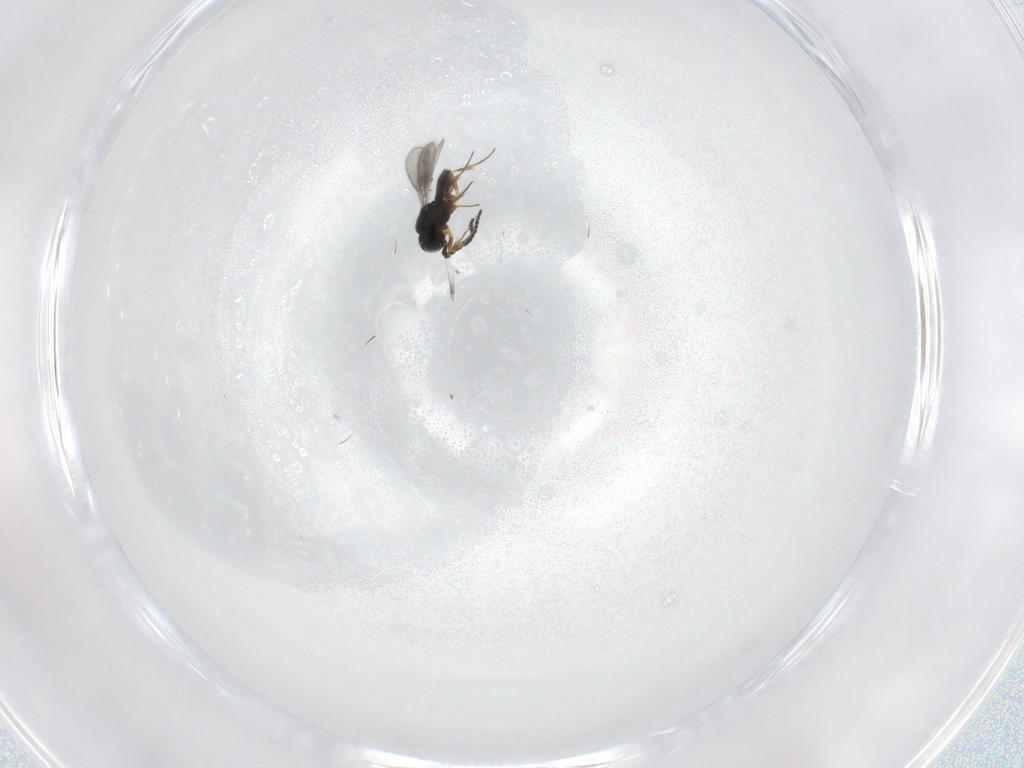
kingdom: Animalia
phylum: Arthropoda
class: Insecta
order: Hymenoptera
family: Scelionidae
